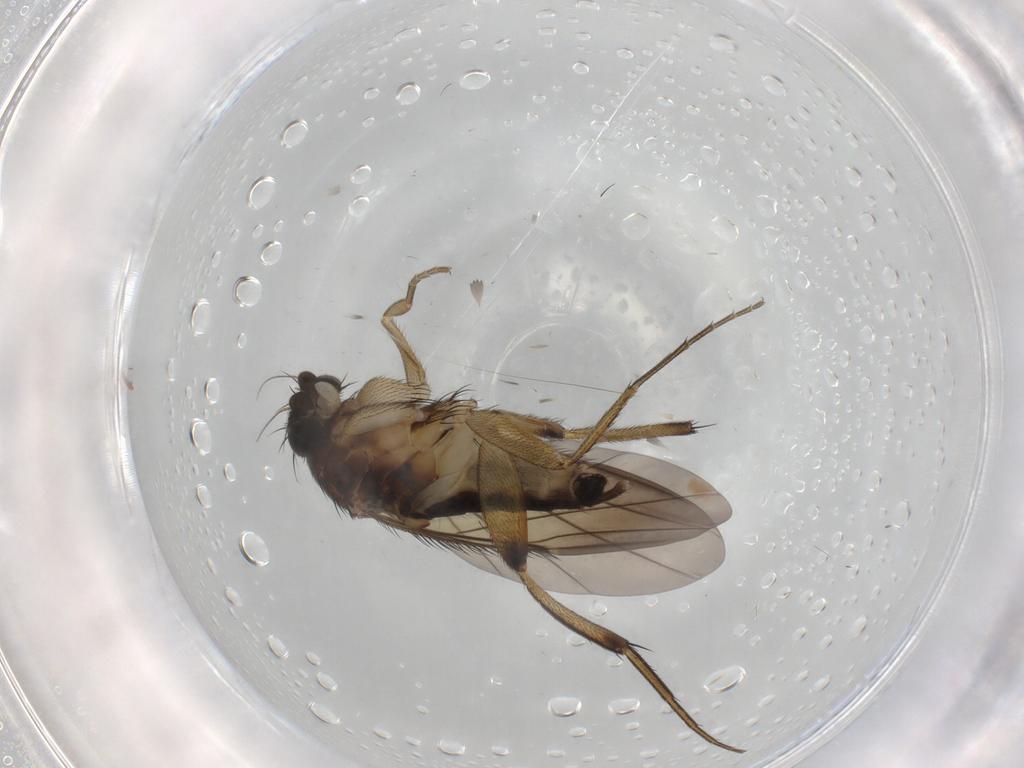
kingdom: Animalia
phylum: Arthropoda
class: Insecta
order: Diptera
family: Phoridae
